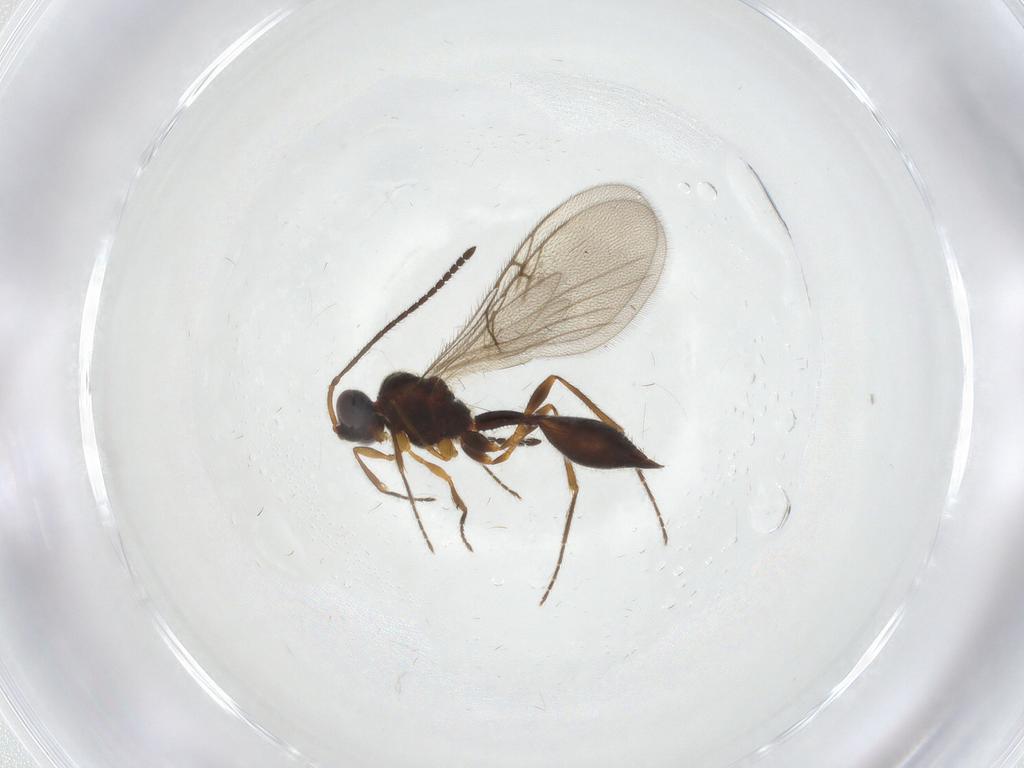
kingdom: Animalia
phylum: Arthropoda
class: Insecta
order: Hymenoptera
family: Diapriidae
